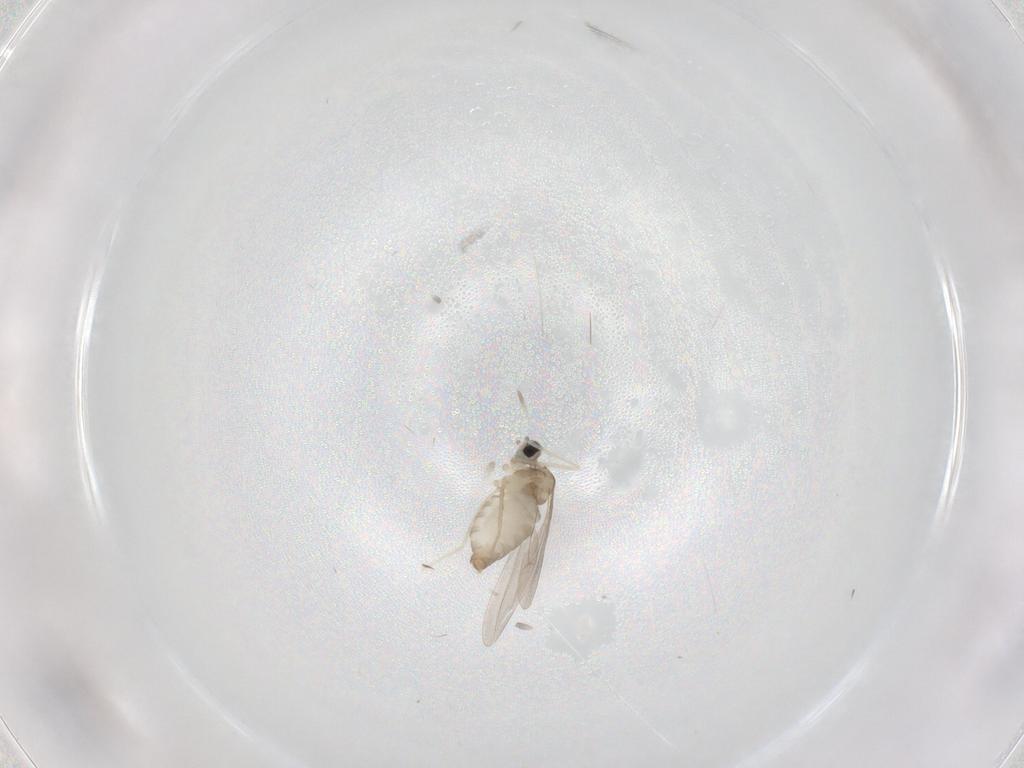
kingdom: Animalia
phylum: Arthropoda
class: Insecta
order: Diptera
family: Cecidomyiidae
